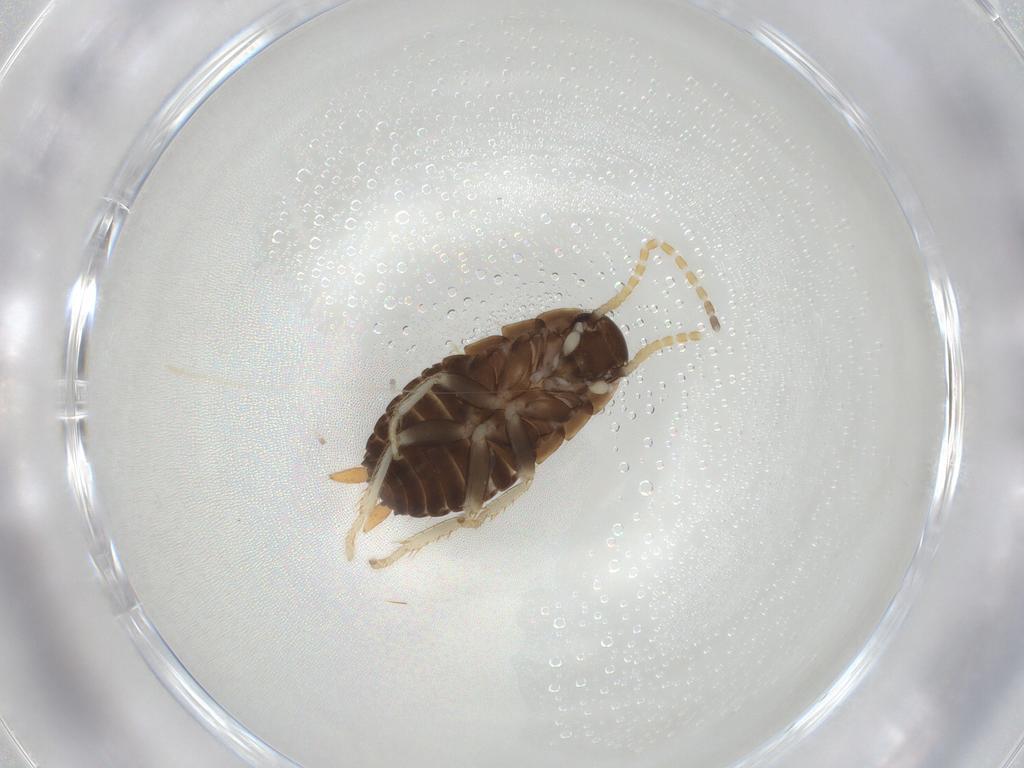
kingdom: Animalia
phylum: Arthropoda
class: Insecta
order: Blattodea
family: Ectobiidae
